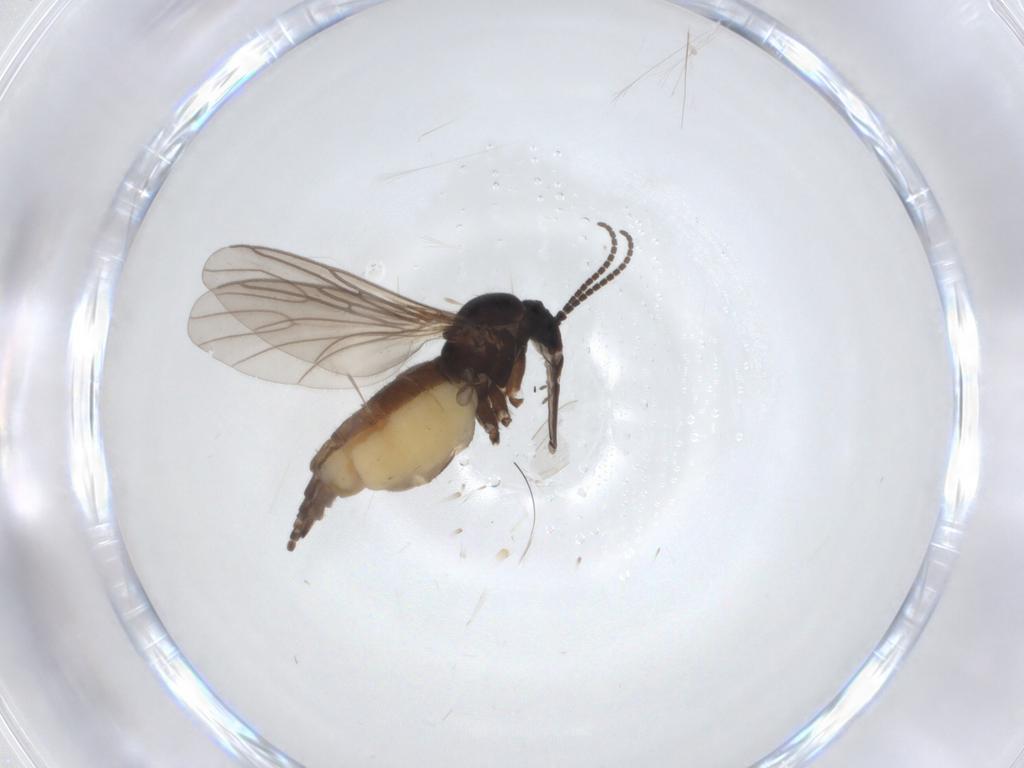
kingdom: Animalia
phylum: Arthropoda
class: Insecta
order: Diptera
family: Sciaridae
